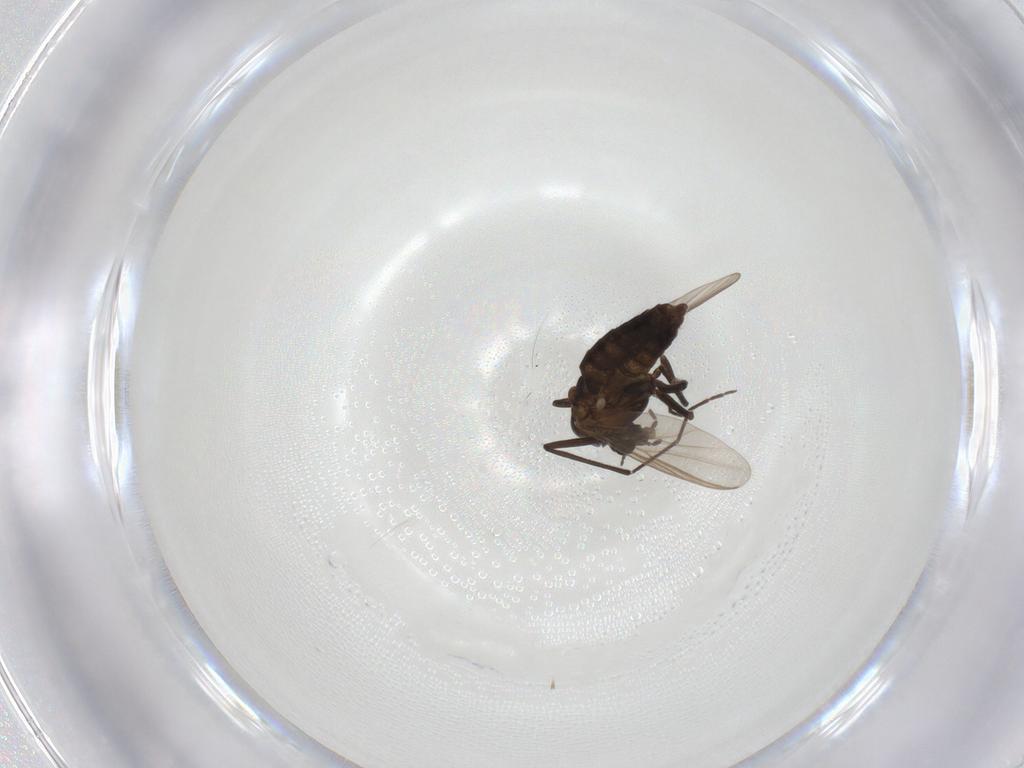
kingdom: Animalia
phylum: Arthropoda
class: Insecta
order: Diptera
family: Chironomidae
